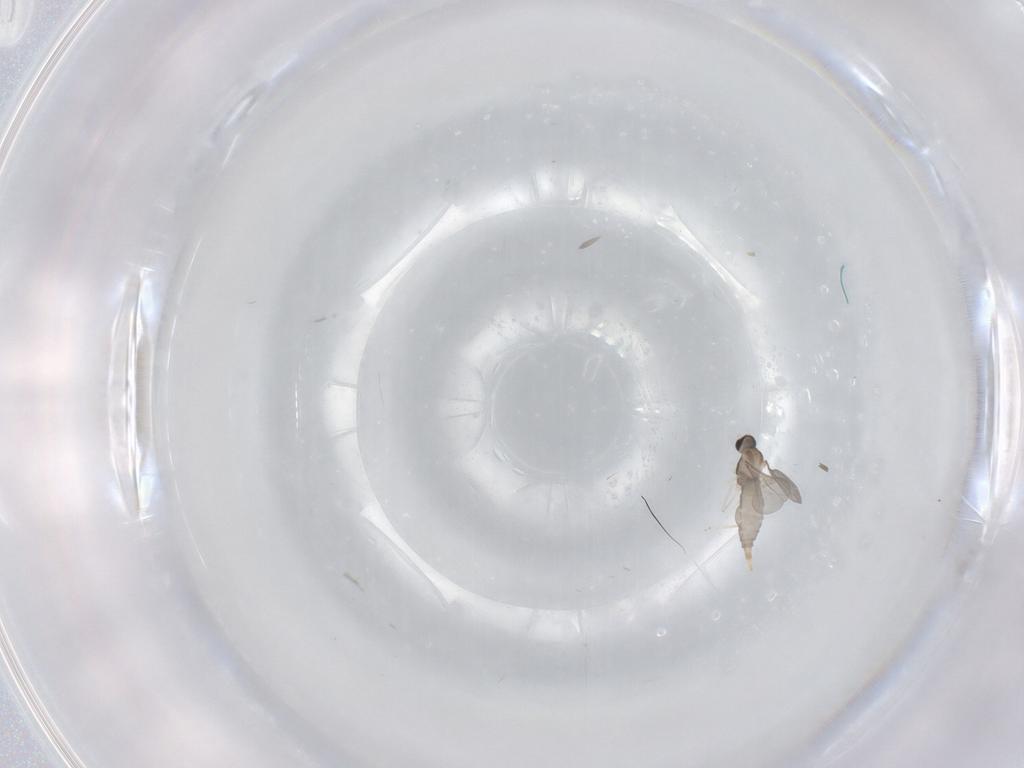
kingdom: Animalia
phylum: Arthropoda
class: Insecta
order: Diptera
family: Cecidomyiidae
